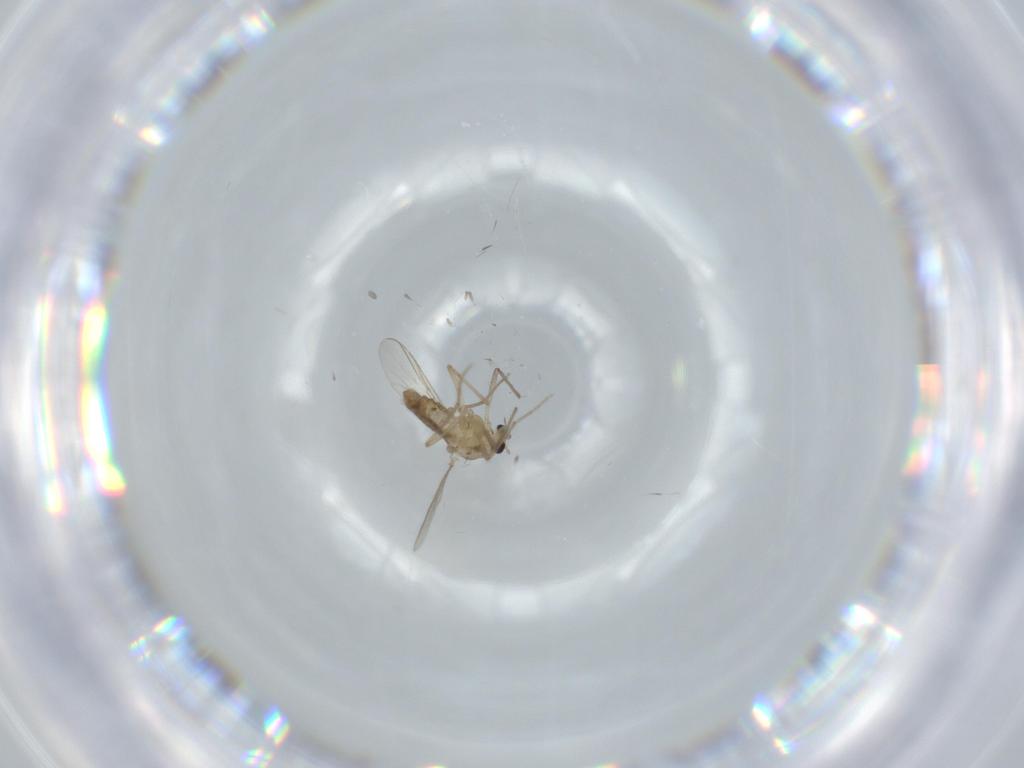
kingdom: Animalia
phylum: Arthropoda
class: Insecta
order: Diptera
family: Chironomidae
